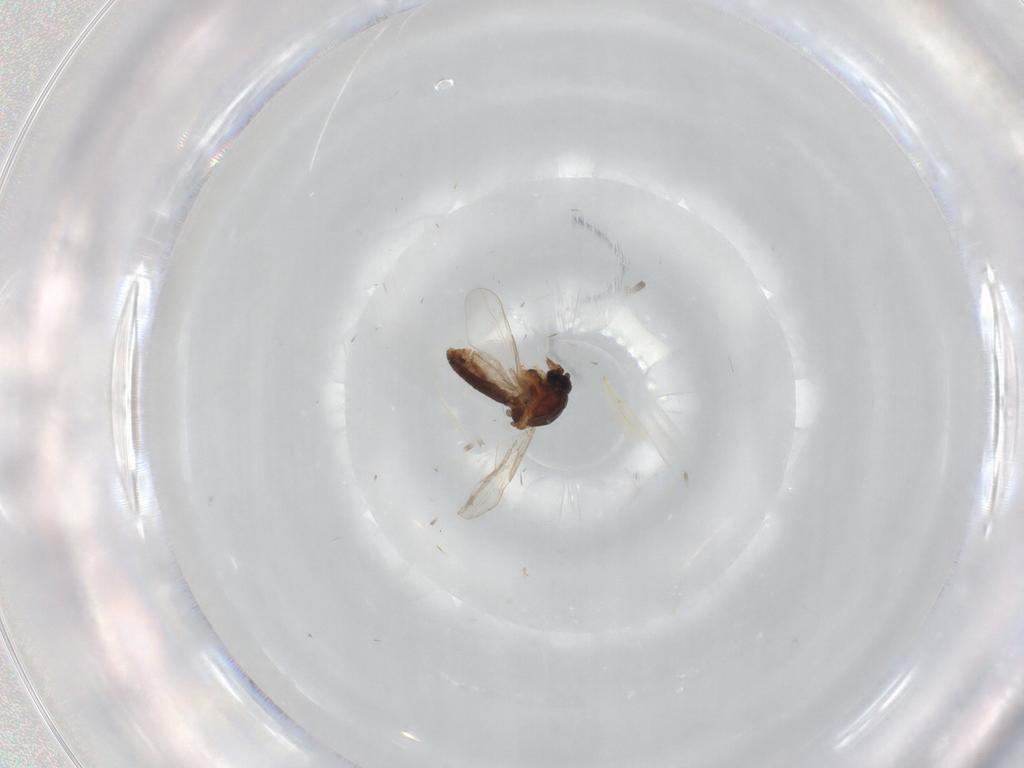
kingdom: Animalia
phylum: Arthropoda
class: Insecta
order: Diptera
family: Ceratopogonidae
